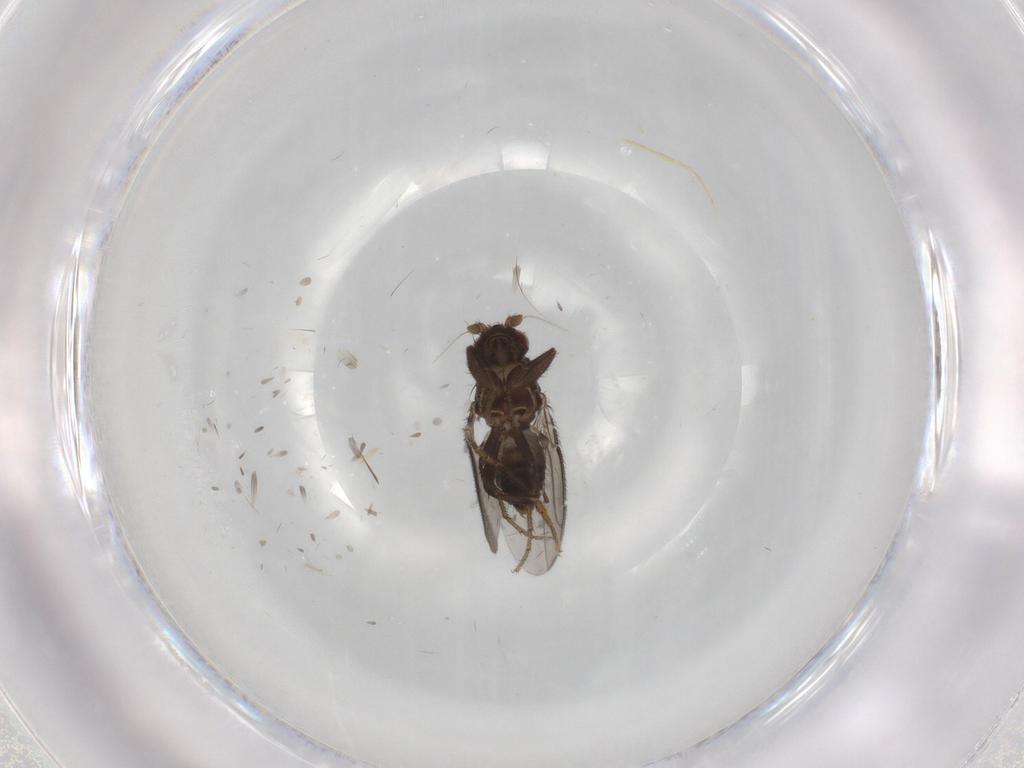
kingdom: Animalia
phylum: Arthropoda
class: Insecta
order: Diptera
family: Sphaeroceridae
